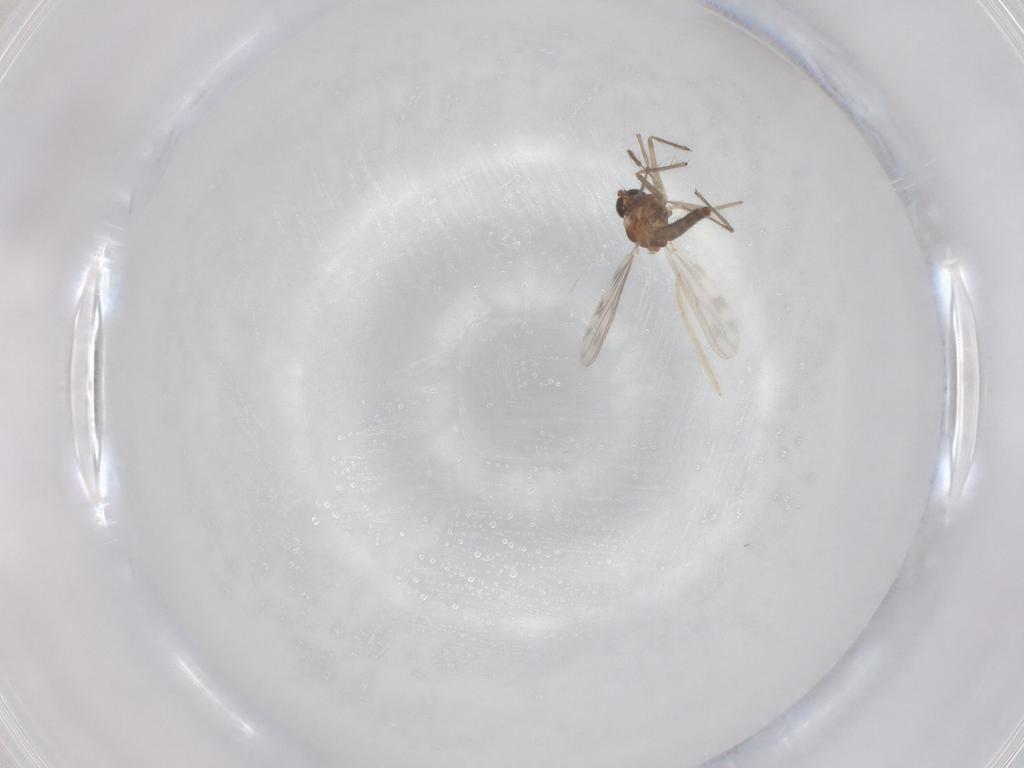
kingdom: Animalia
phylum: Arthropoda
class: Insecta
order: Diptera
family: Chironomidae
